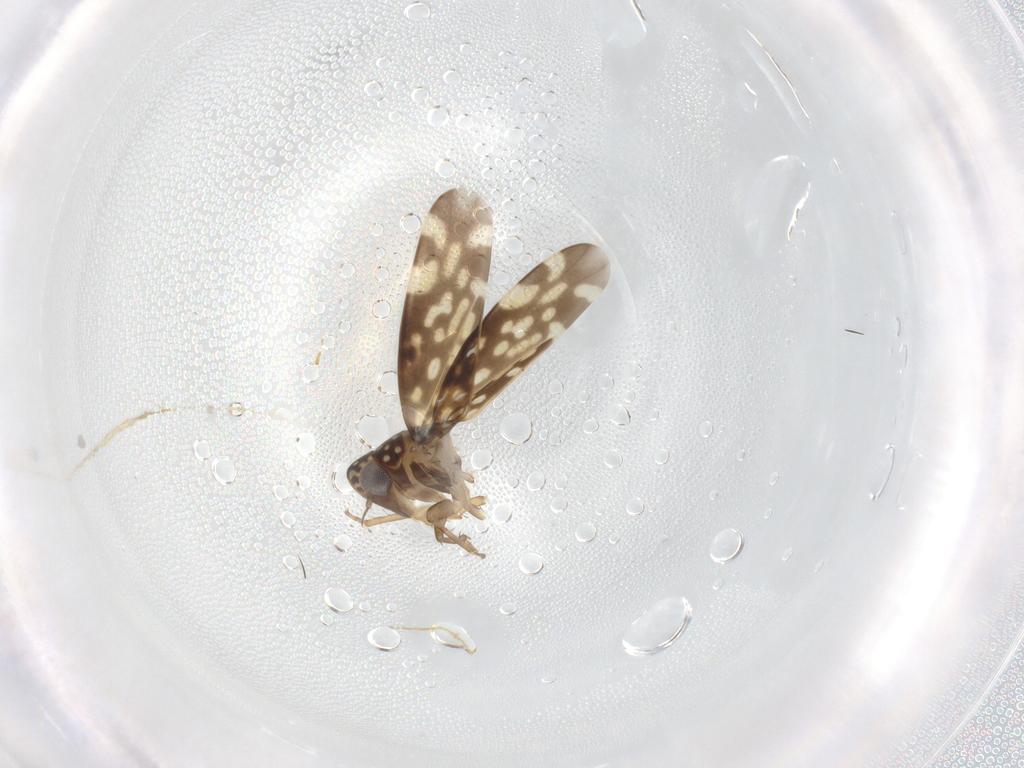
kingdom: Animalia
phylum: Arthropoda
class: Insecta
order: Hemiptera
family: Cicadellidae
